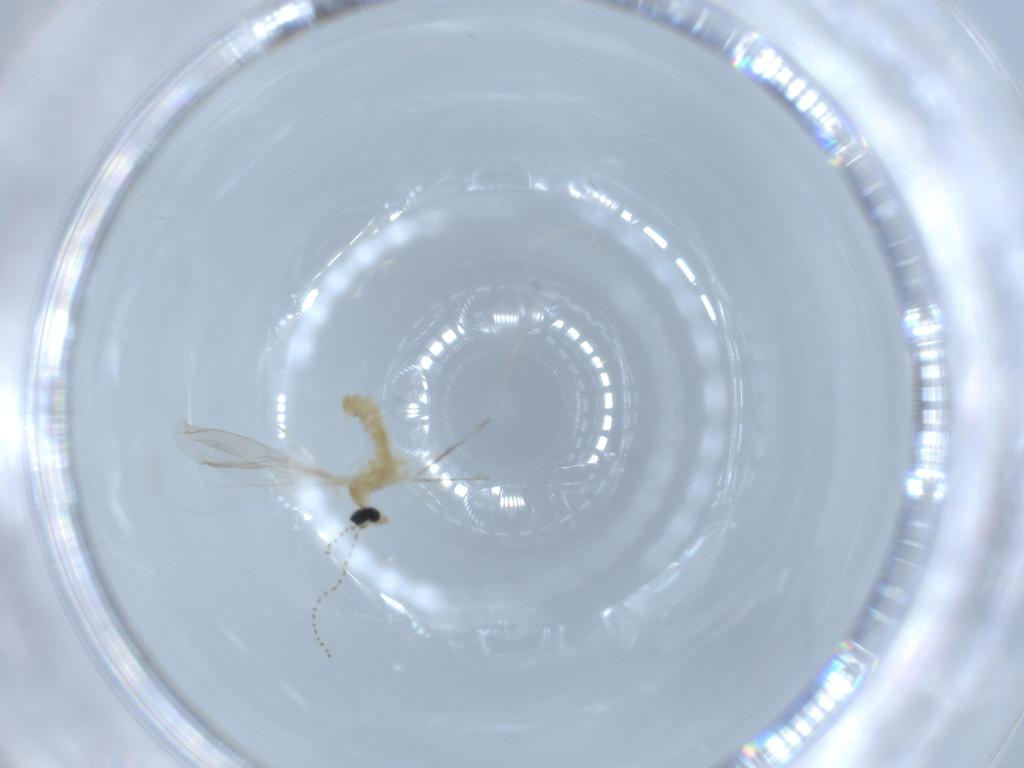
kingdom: Animalia
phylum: Arthropoda
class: Insecta
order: Diptera
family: Cecidomyiidae
